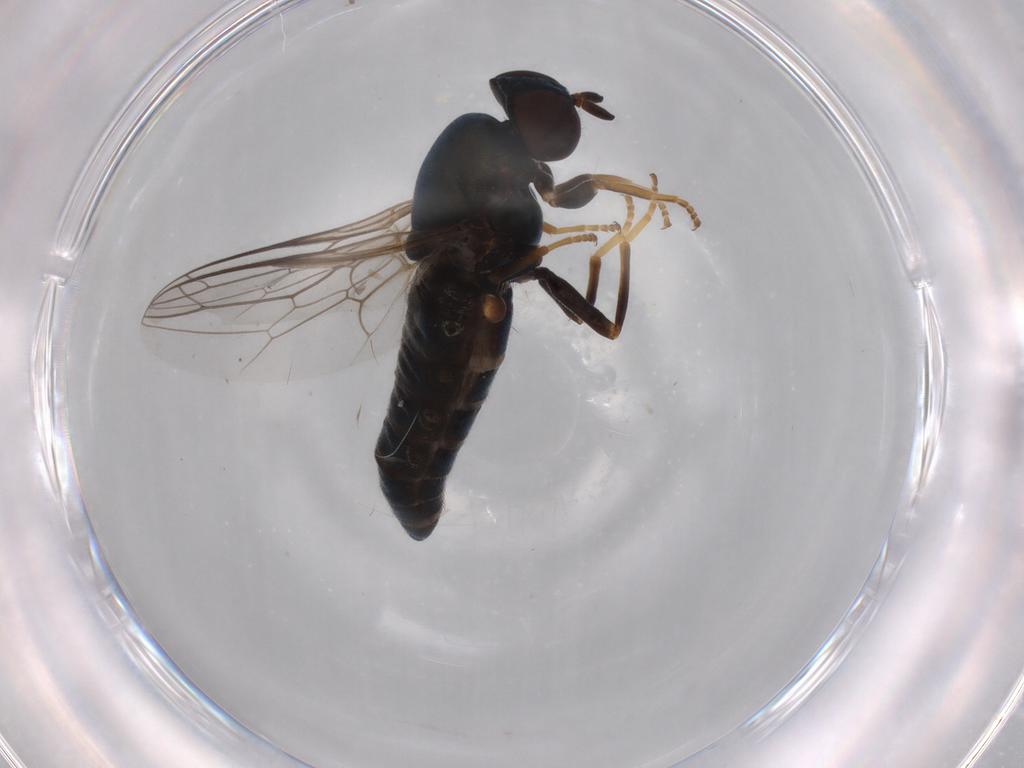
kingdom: Animalia
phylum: Arthropoda
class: Insecta
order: Diptera
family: Scenopinidae
